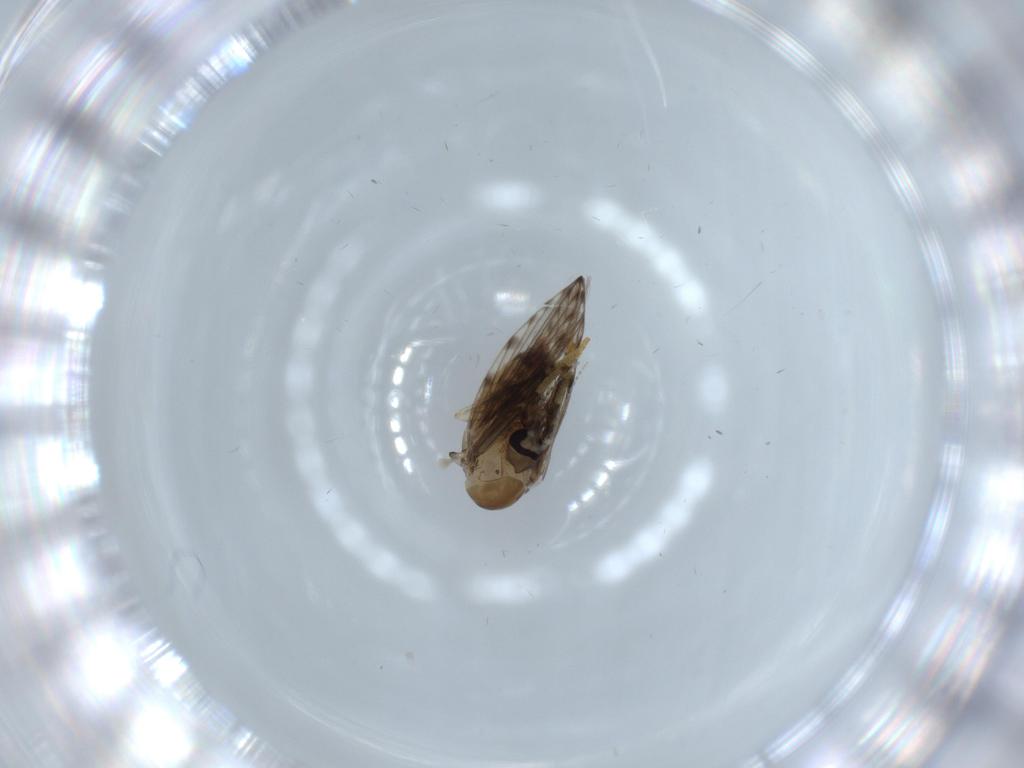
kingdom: Animalia
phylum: Arthropoda
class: Insecta
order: Diptera
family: Psychodidae
